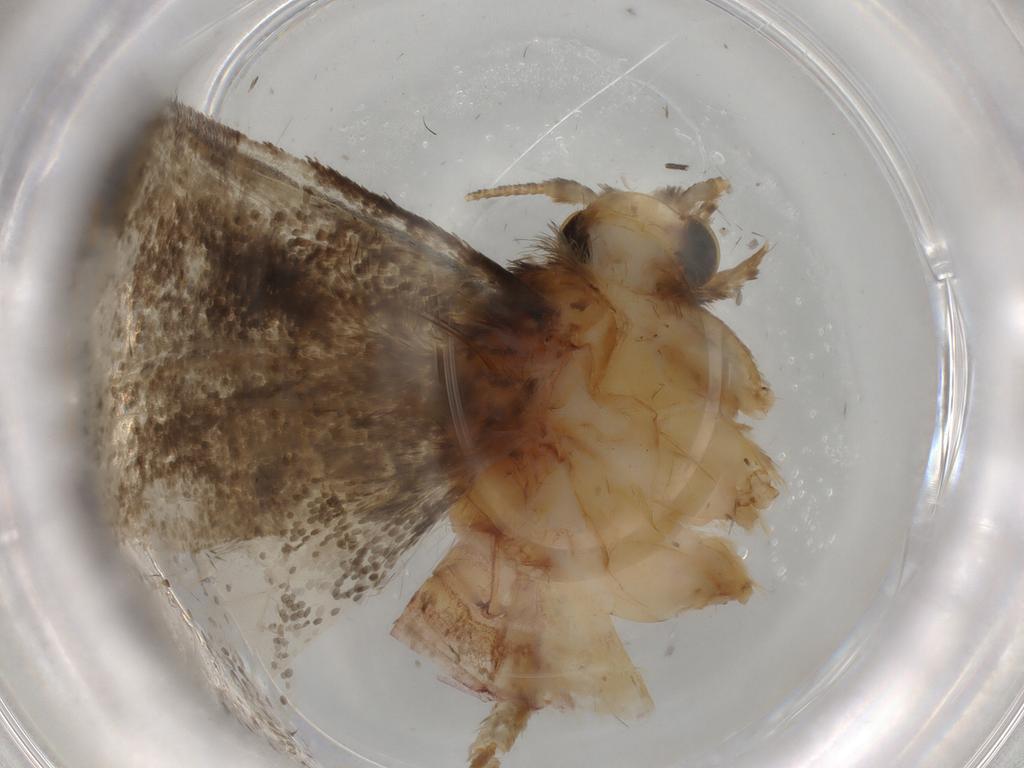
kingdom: Animalia
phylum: Arthropoda
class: Insecta
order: Lepidoptera
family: Tineidae
